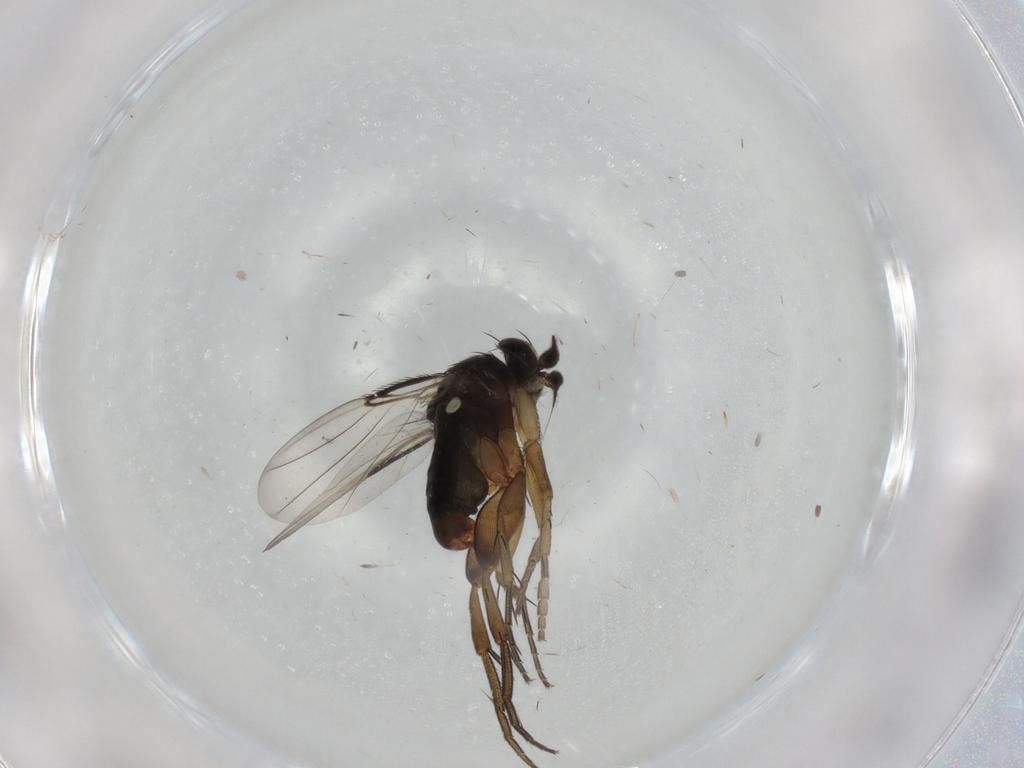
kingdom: Animalia
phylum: Arthropoda
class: Insecta
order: Diptera
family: Phoridae
